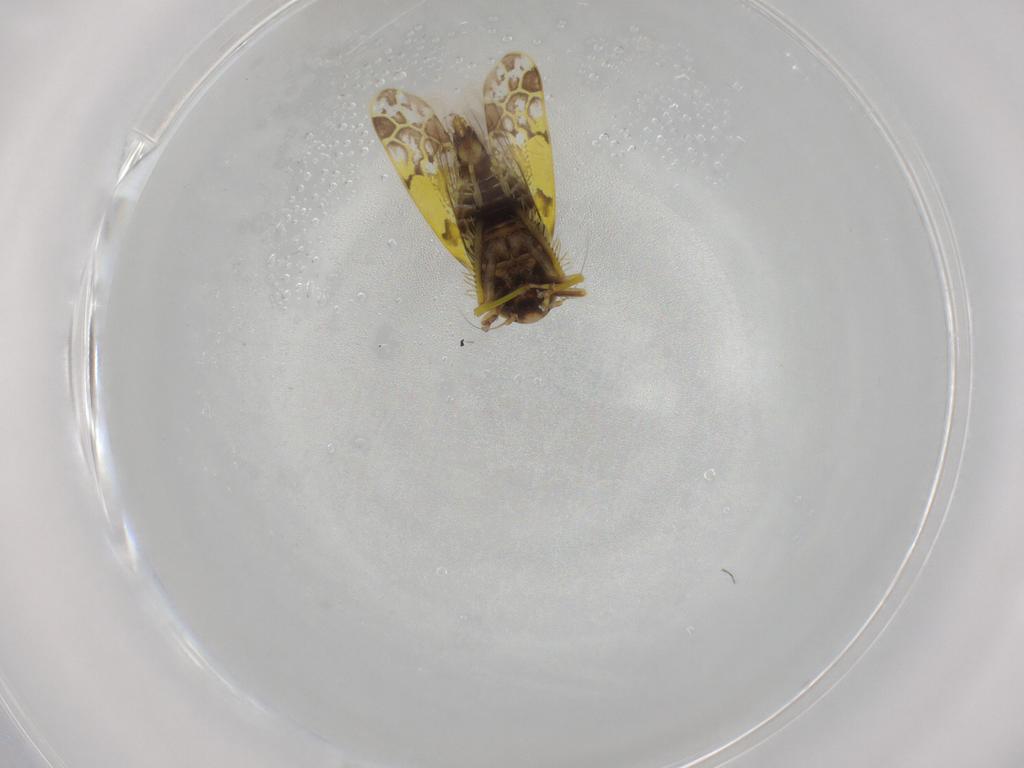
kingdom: Animalia
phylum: Arthropoda
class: Insecta
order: Hemiptera
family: Cicadellidae
